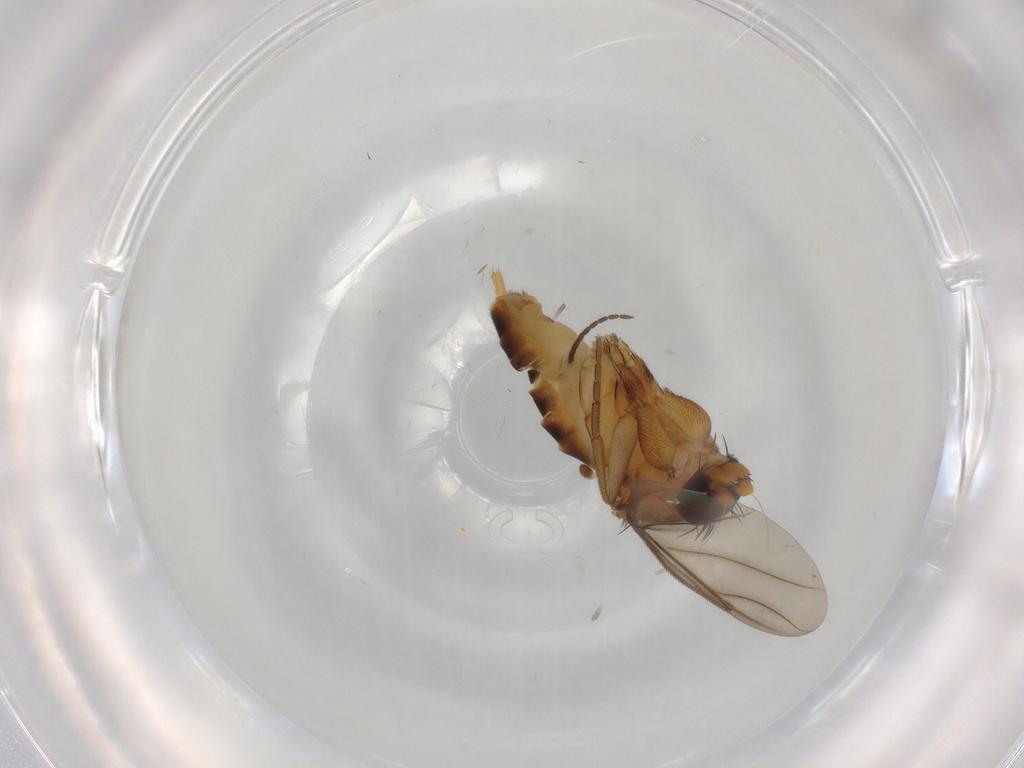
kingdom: Animalia
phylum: Arthropoda
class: Insecta
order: Diptera
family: Sciaridae
